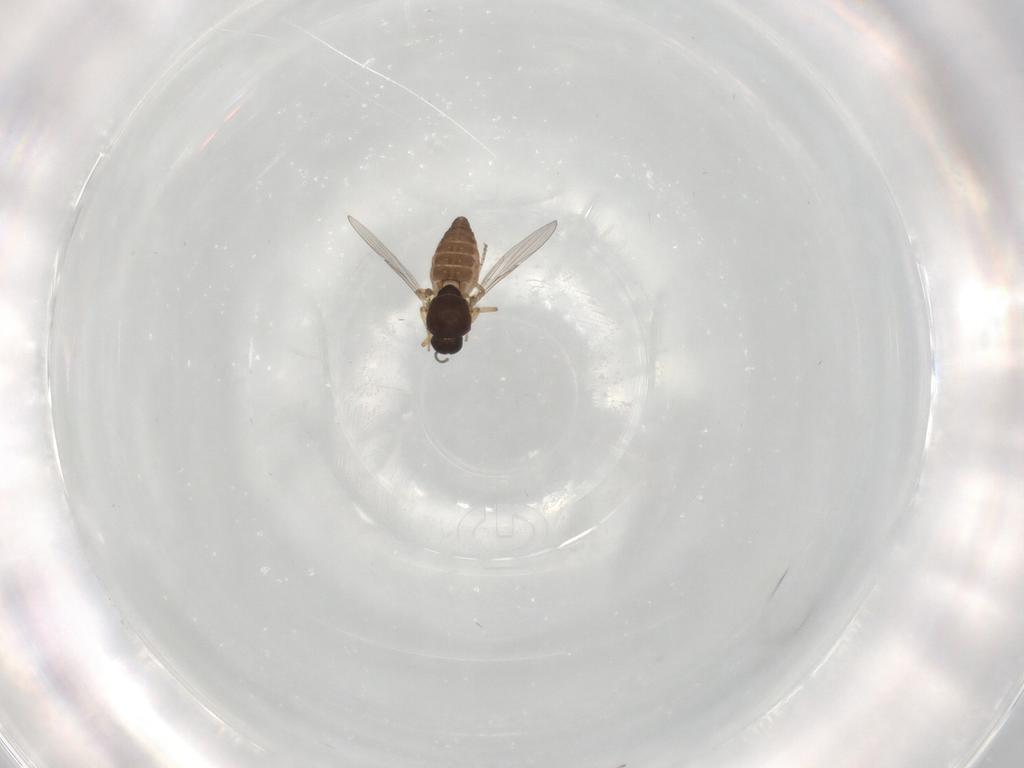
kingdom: Animalia
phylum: Arthropoda
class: Insecta
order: Diptera
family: Ceratopogonidae
